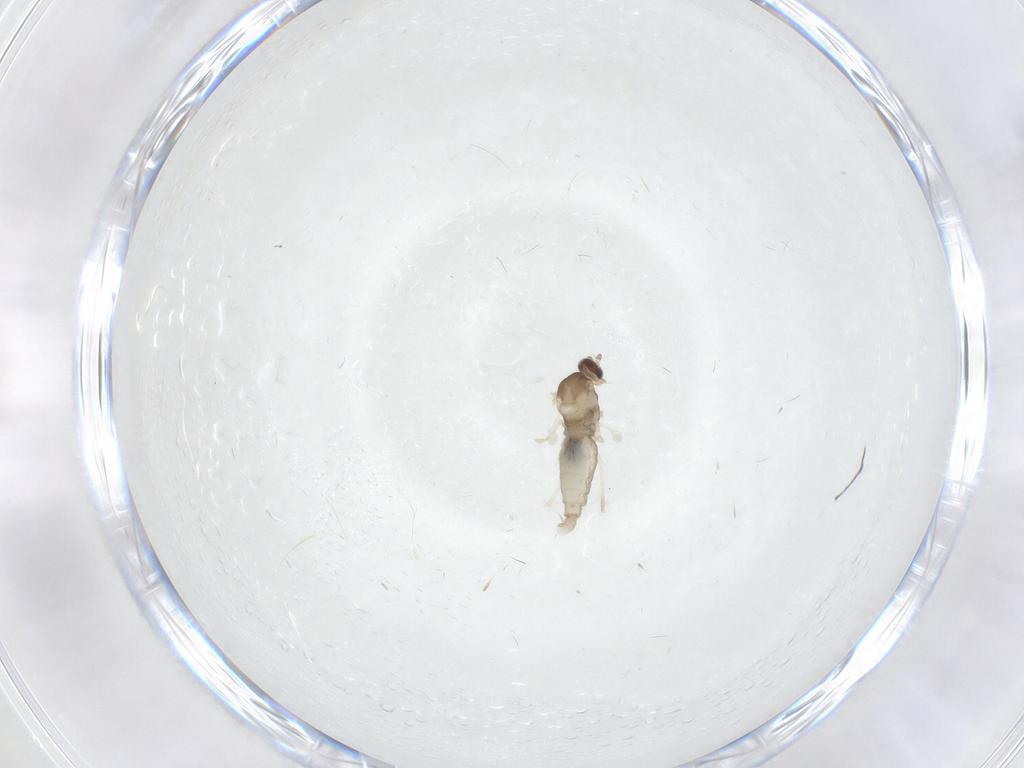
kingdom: Animalia
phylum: Arthropoda
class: Insecta
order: Diptera
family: Cecidomyiidae
